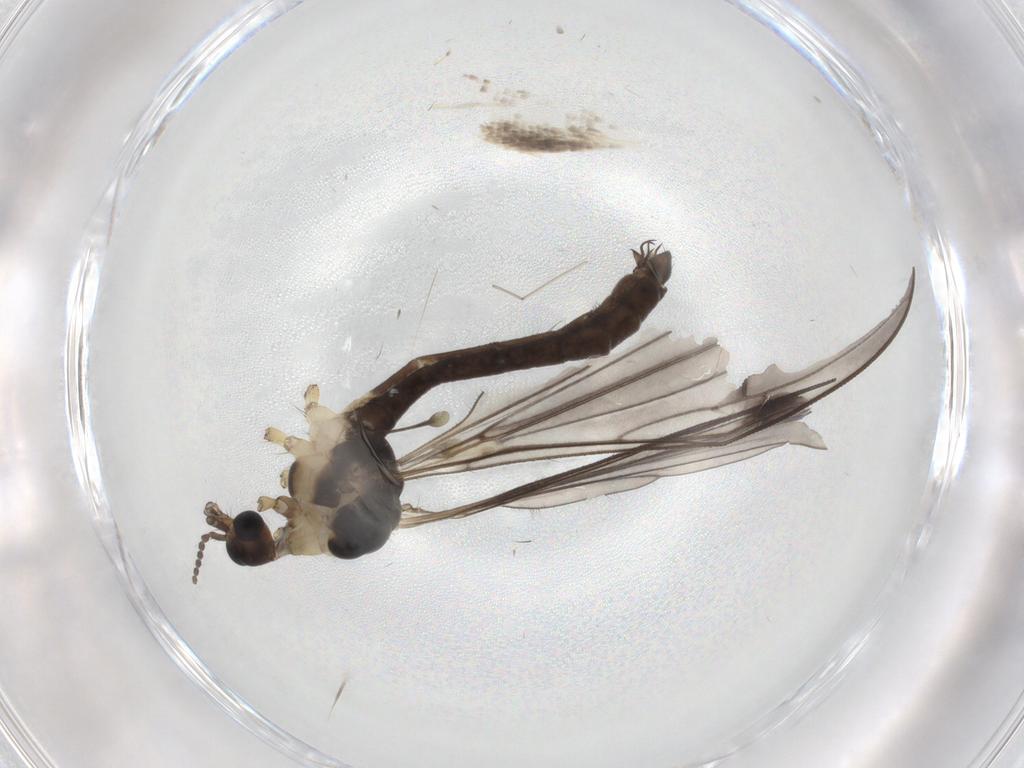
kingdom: Animalia
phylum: Arthropoda
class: Insecta
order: Diptera
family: Limoniidae
